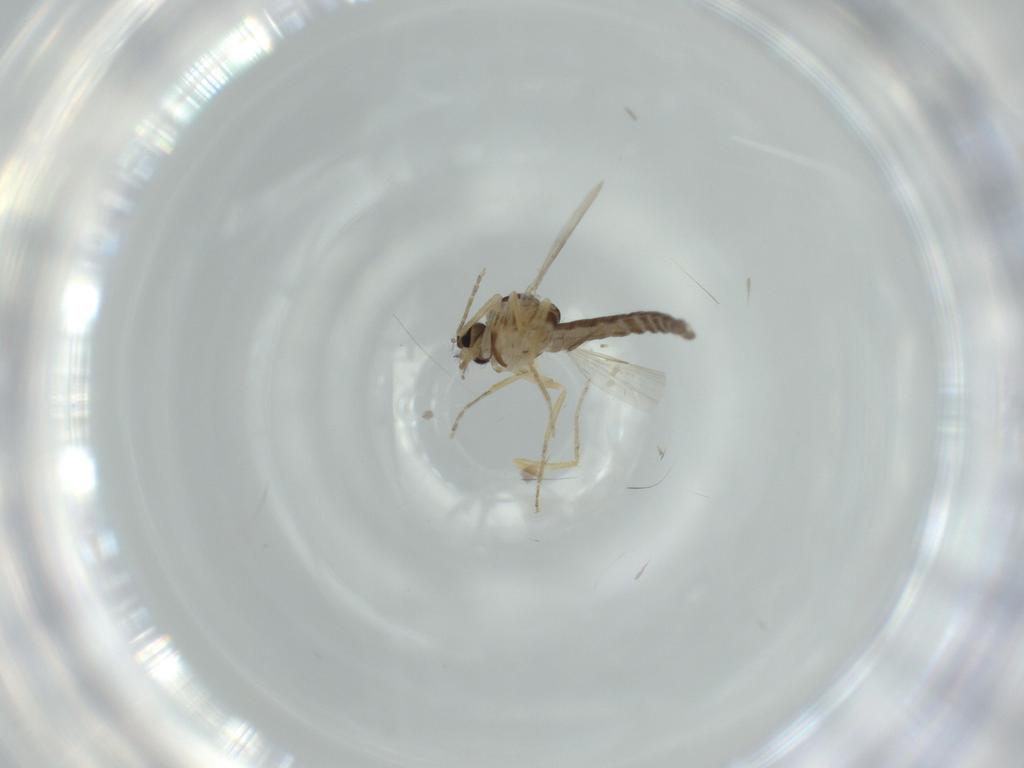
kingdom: Animalia
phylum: Arthropoda
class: Insecta
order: Diptera
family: Ceratopogonidae
